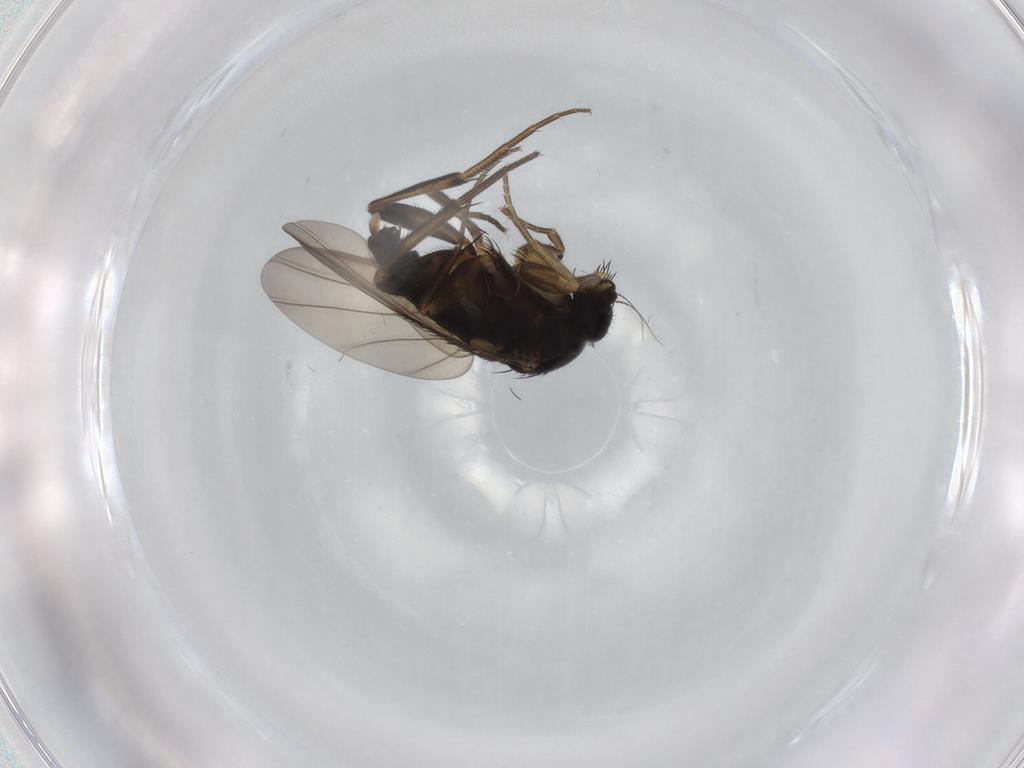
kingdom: Animalia
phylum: Arthropoda
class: Insecta
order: Diptera
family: Phoridae
